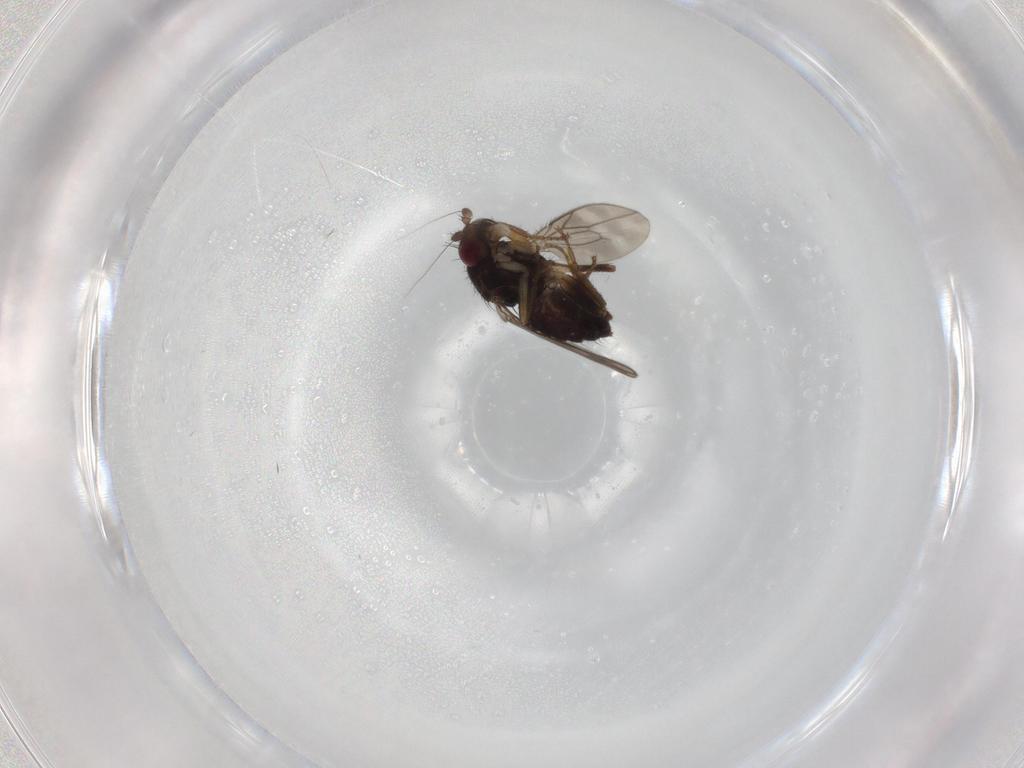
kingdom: Animalia
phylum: Arthropoda
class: Insecta
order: Diptera
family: Sphaeroceridae
